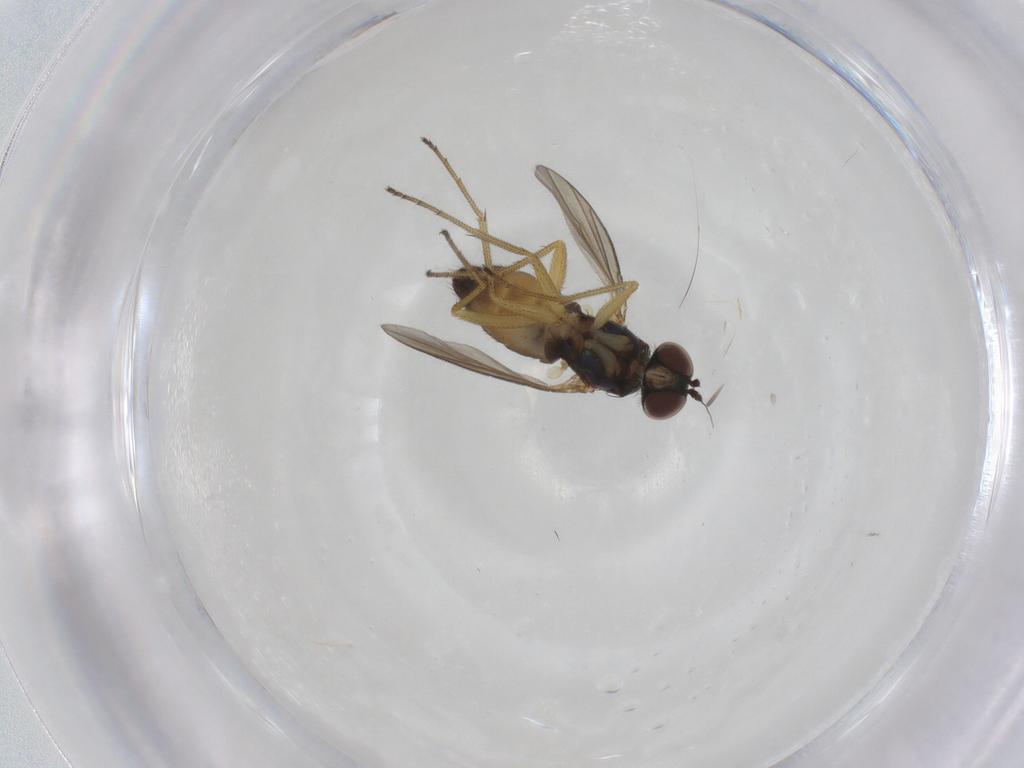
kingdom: Animalia
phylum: Arthropoda
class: Insecta
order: Diptera
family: Dolichopodidae
